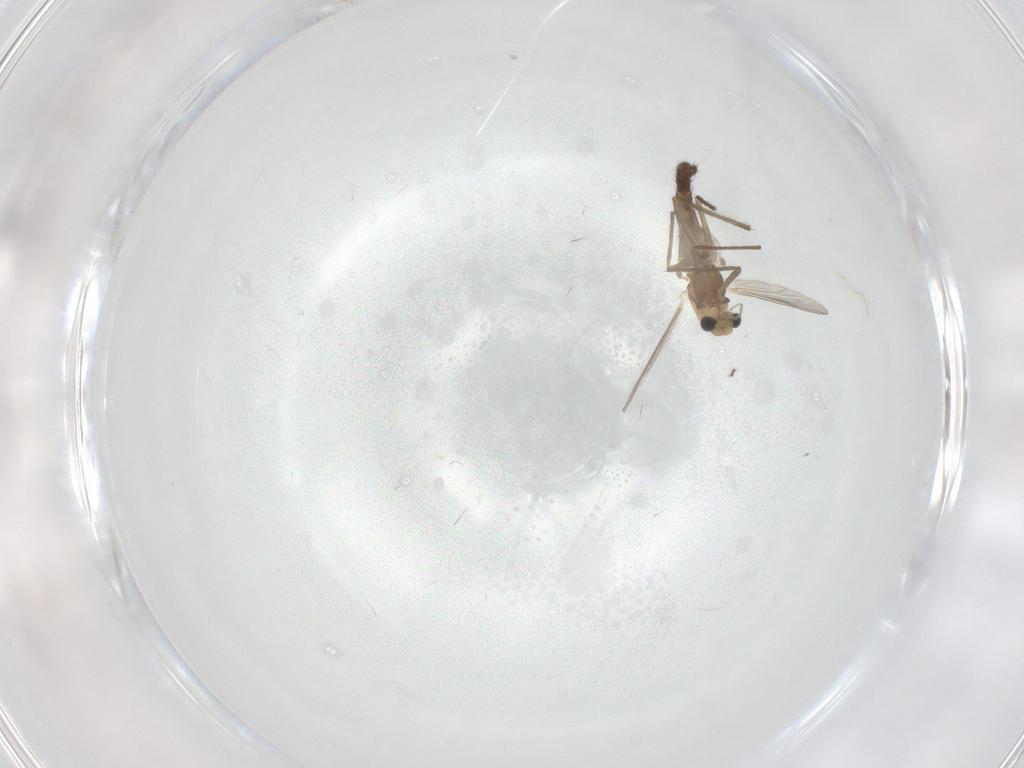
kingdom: Animalia
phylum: Arthropoda
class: Insecta
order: Diptera
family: Chironomidae
